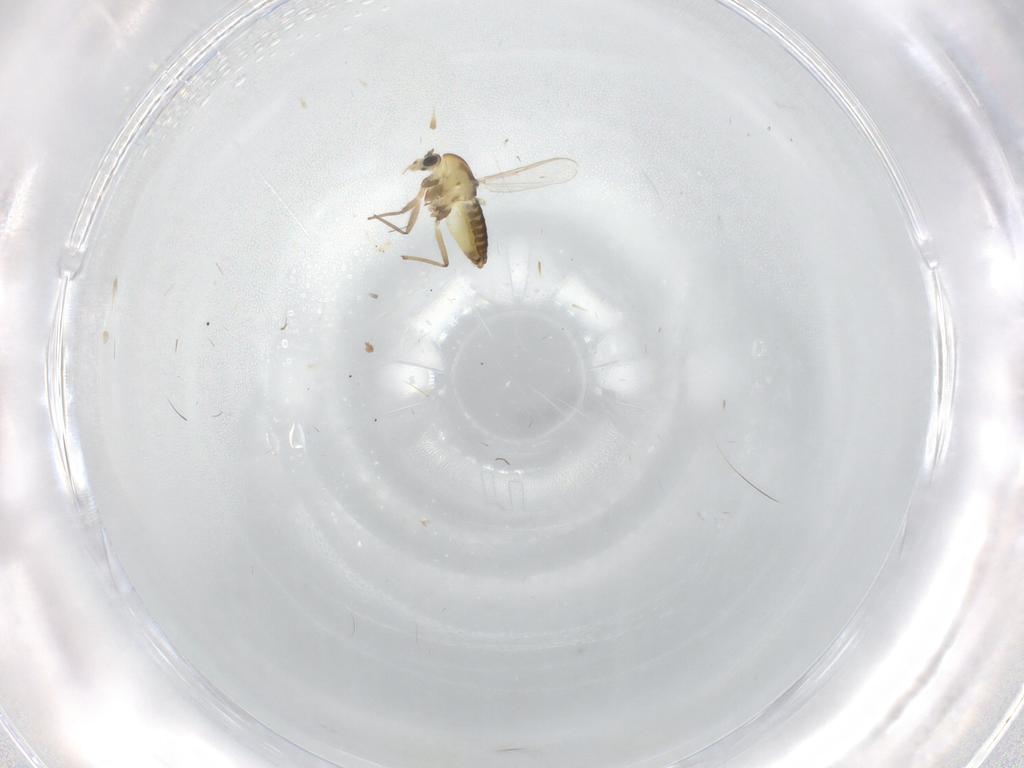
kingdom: Animalia
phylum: Arthropoda
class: Insecta
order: Diptera
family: Chironomidae
